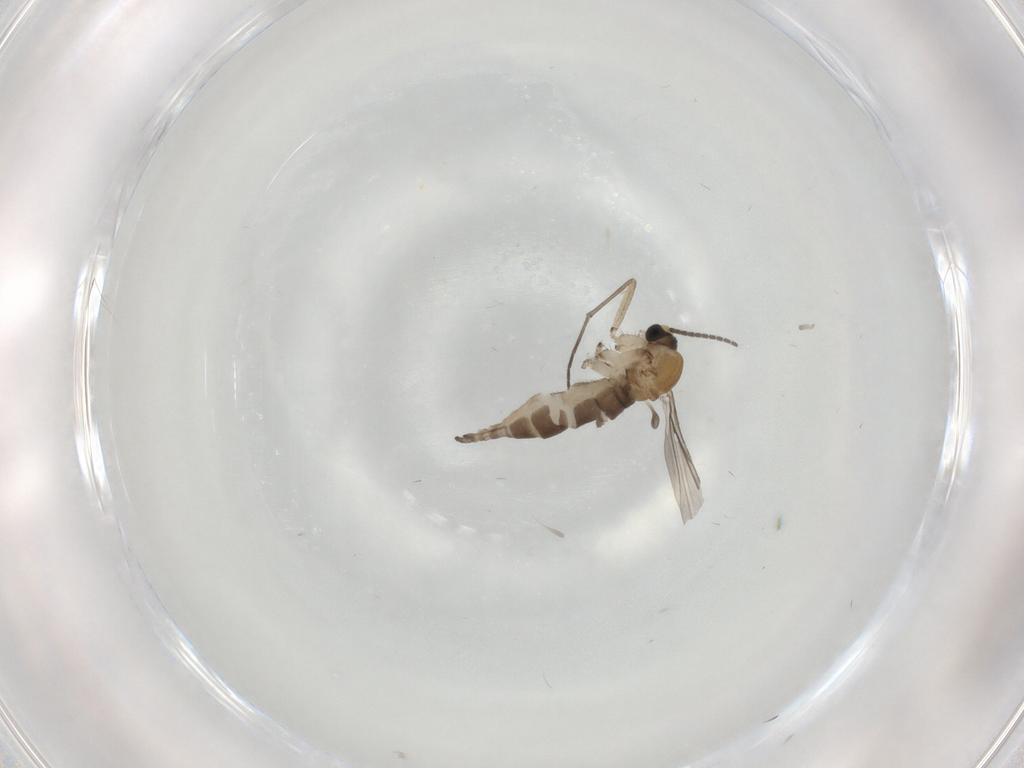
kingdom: Animalia
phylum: Arthropoda
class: Insecta
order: Diptera
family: Sciaridae
